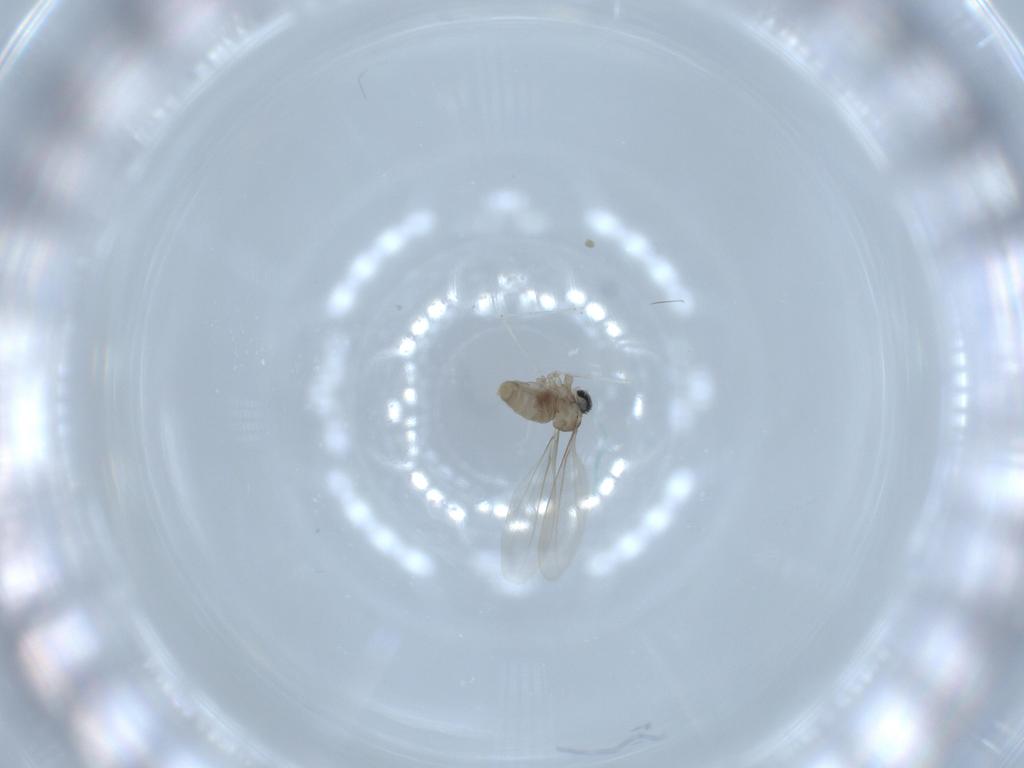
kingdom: Animalia
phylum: Arthropoda
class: Insecta
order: Diptera
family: Cecidomyiidae
